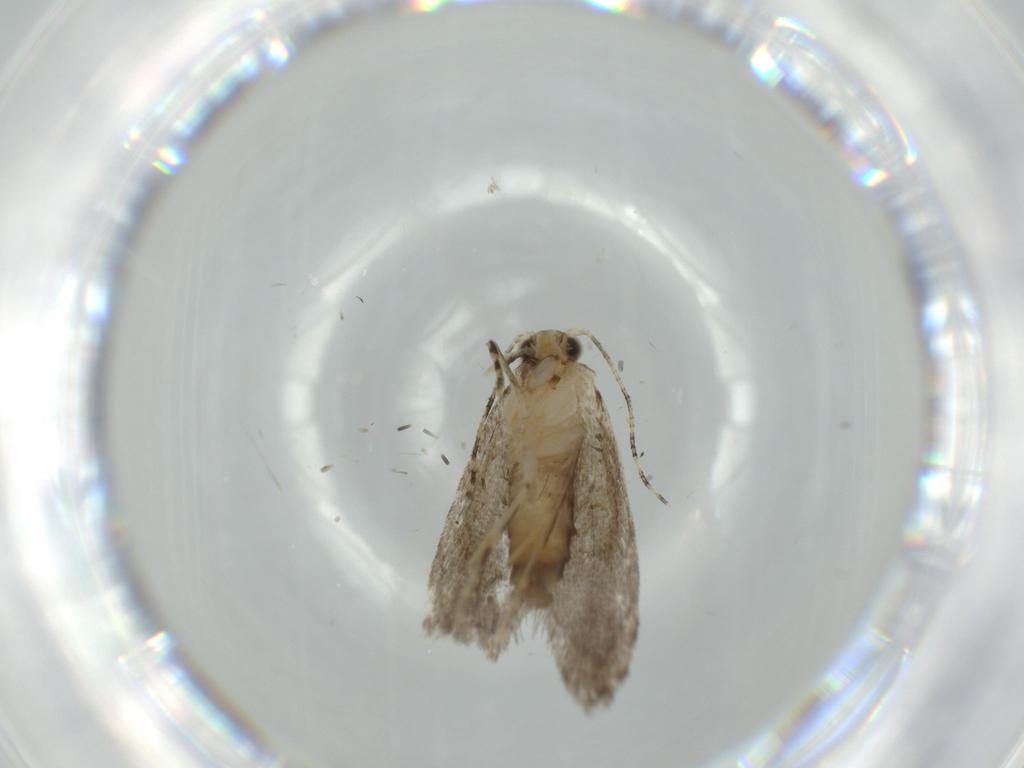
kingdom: Animalia
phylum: Arthropoda
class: Insecta
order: Lepidoptera
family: Tineidae
